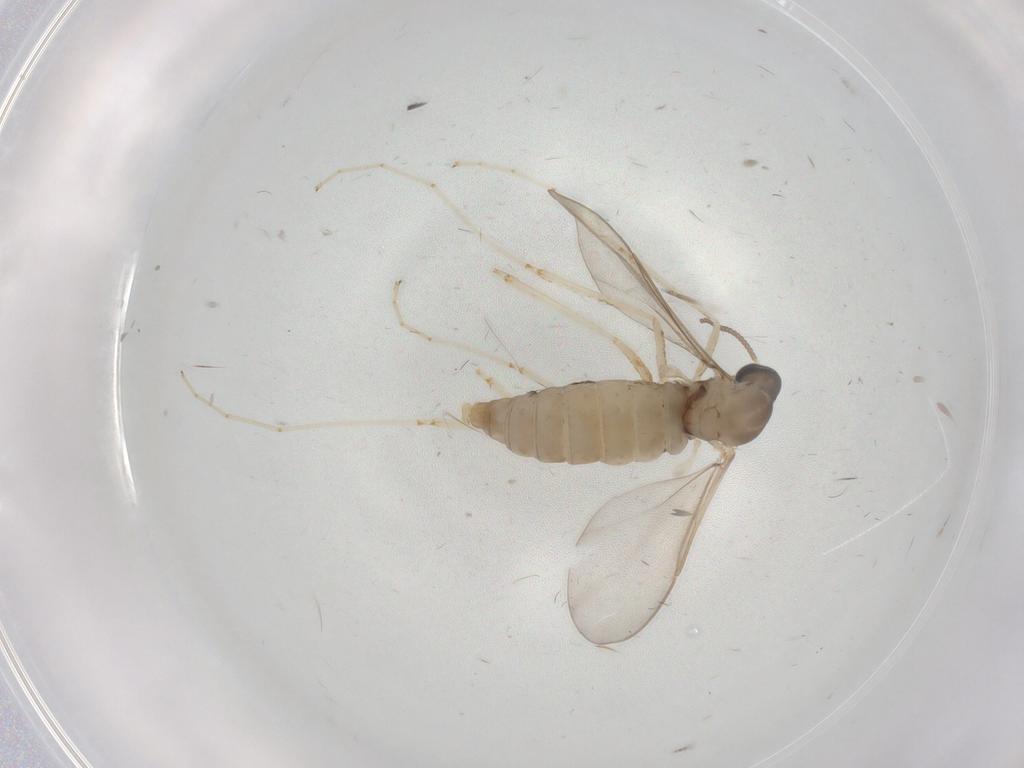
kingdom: Animalia
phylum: Arthropoda
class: Insecta
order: Diptera
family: Cecidomyiidae
